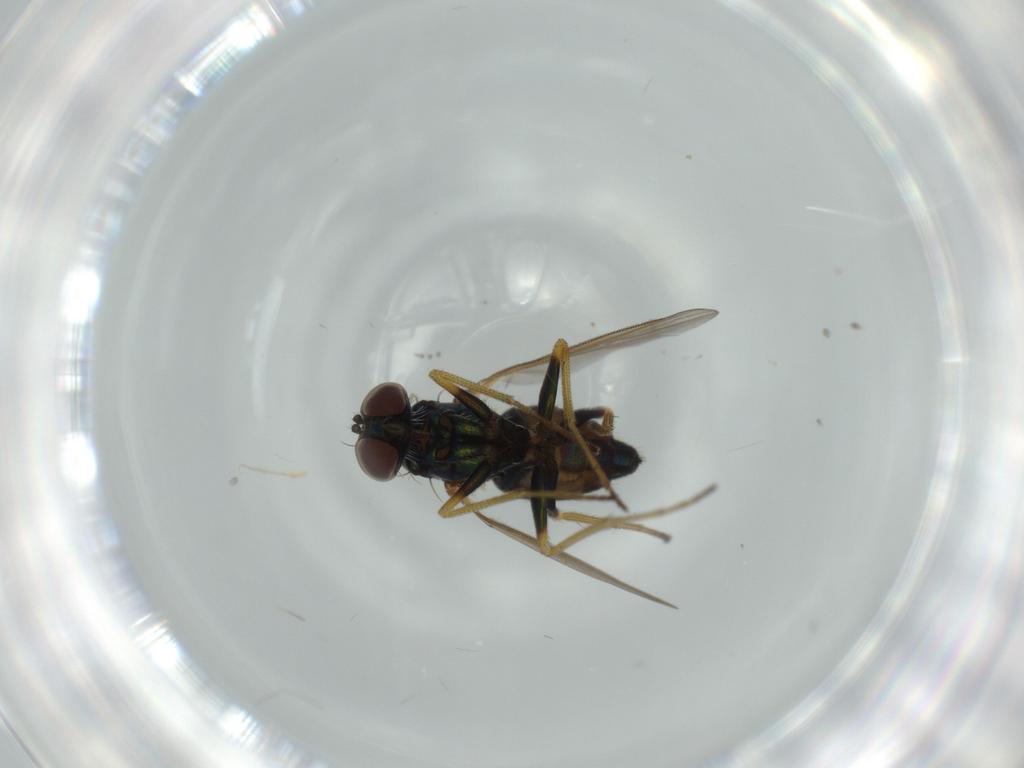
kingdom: Animalia
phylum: Arthropoda
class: Insecta
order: Diptera
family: Dolichopodidae
